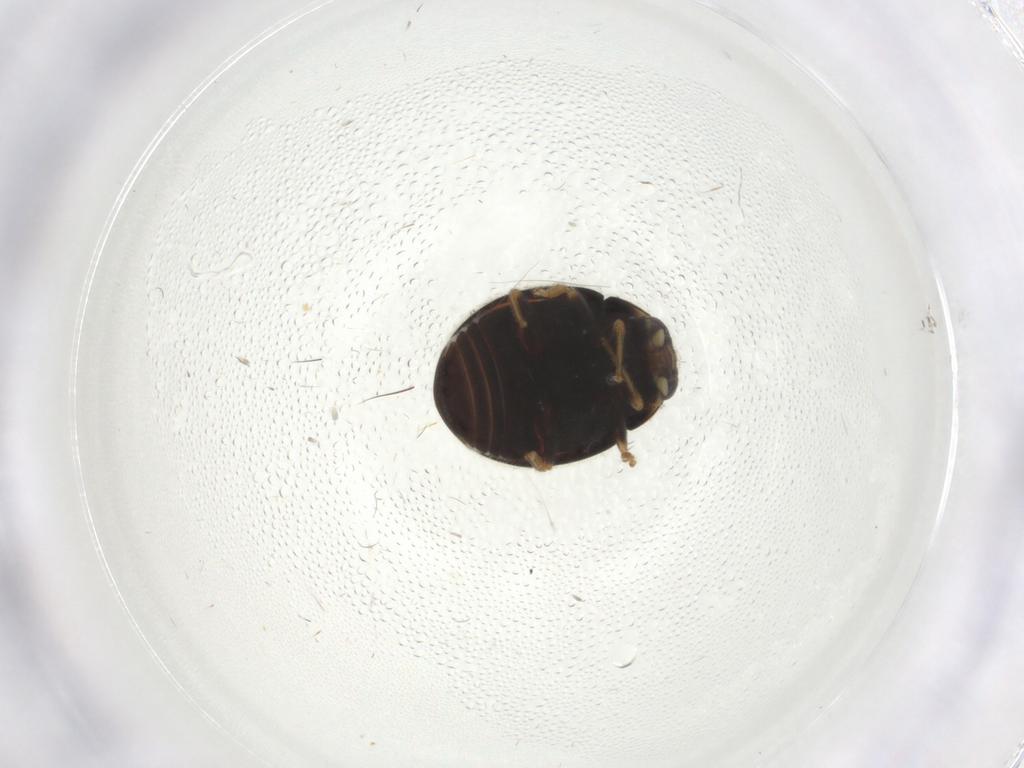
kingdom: Animalia
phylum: Arthropoda
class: Insecta
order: Coleoptera
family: Coccinellidae
